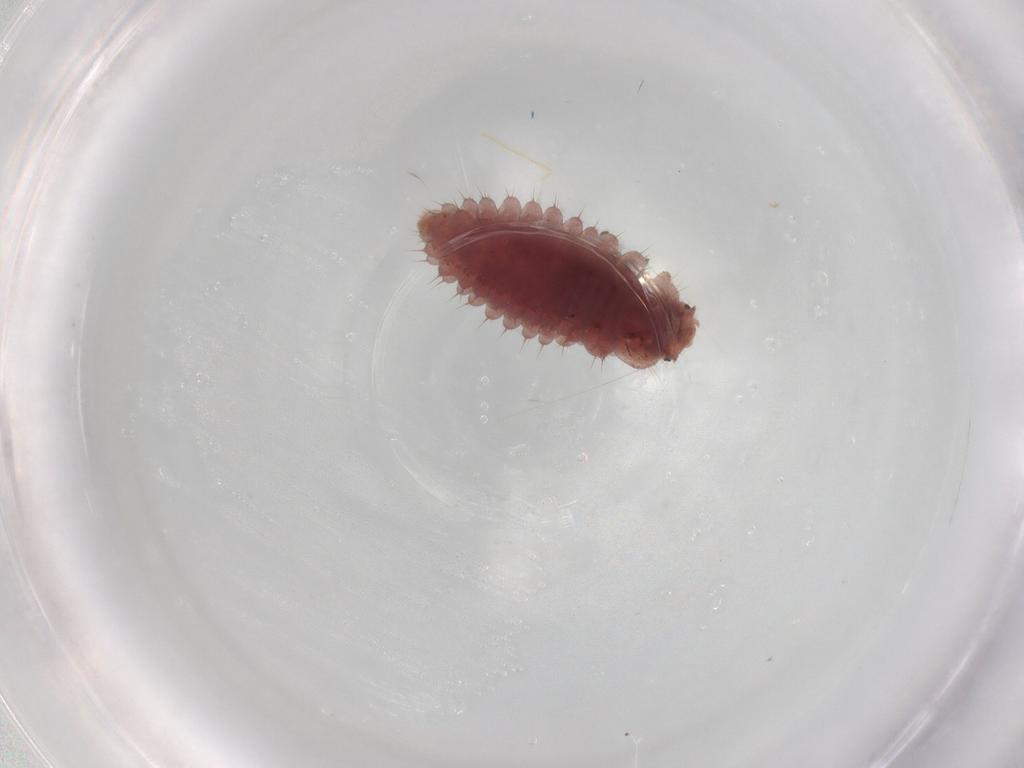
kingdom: Animalia
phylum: Arthropoda
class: Insecta
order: Coleoptera
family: Coccinellidae
